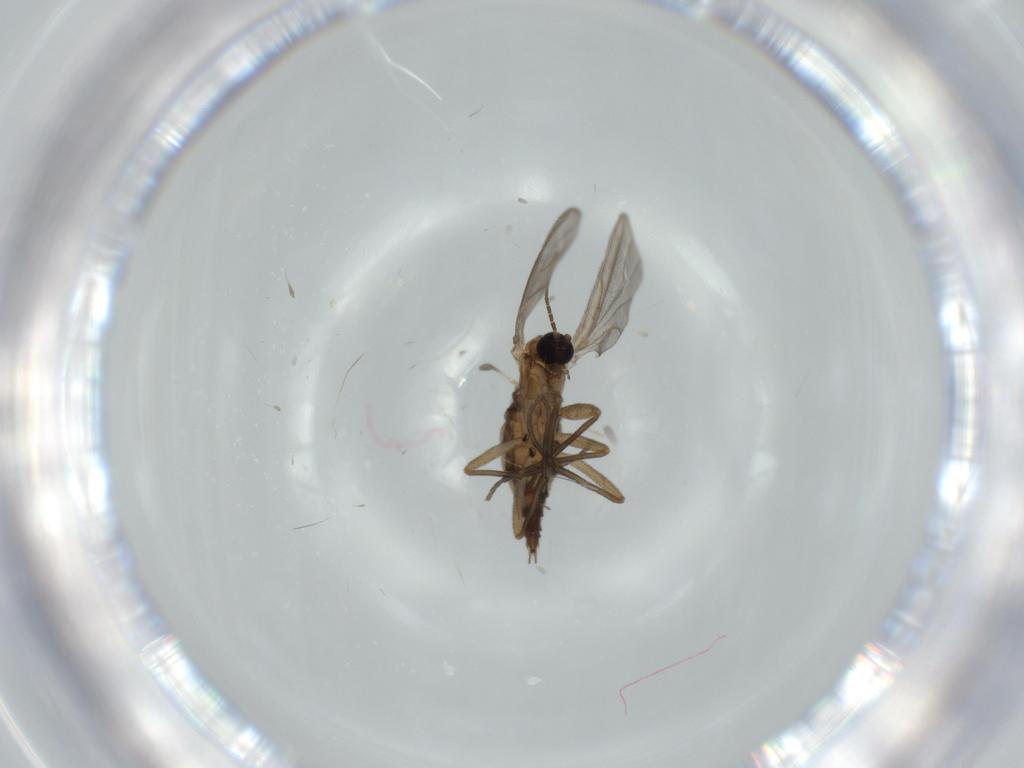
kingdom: Animalia
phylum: Arthropoda
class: Insecta
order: Diptera
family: Sciaridae
